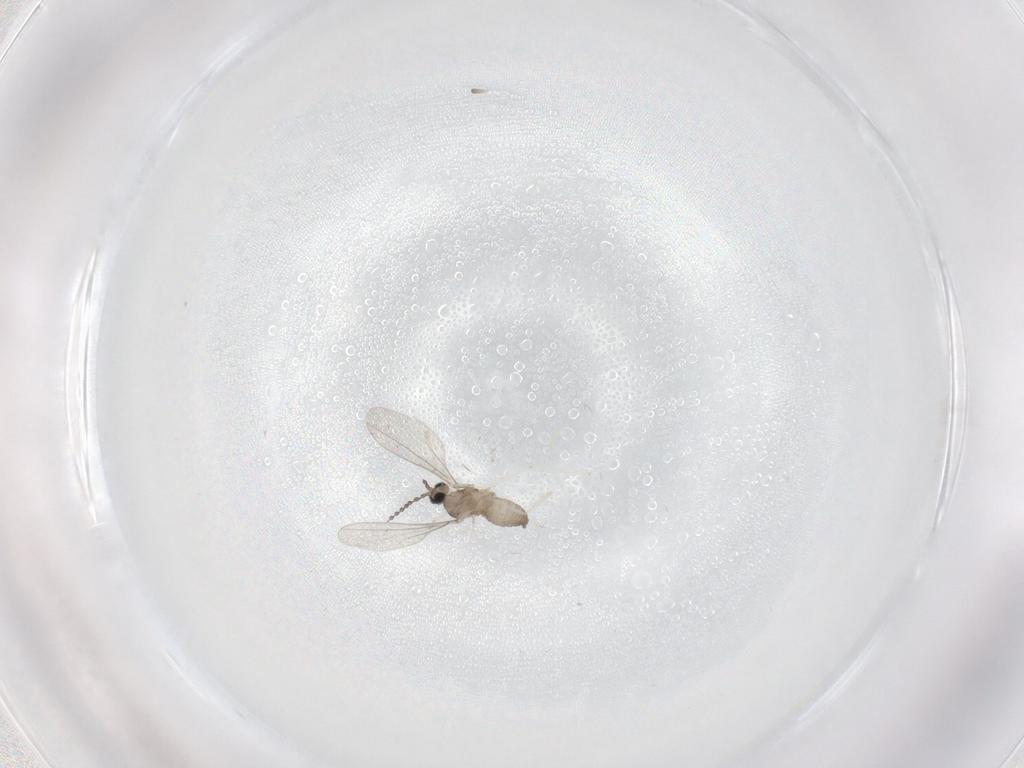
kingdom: Animalia
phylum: Arthropoda
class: Insecta
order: Diptera
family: Cecidomyiidae
